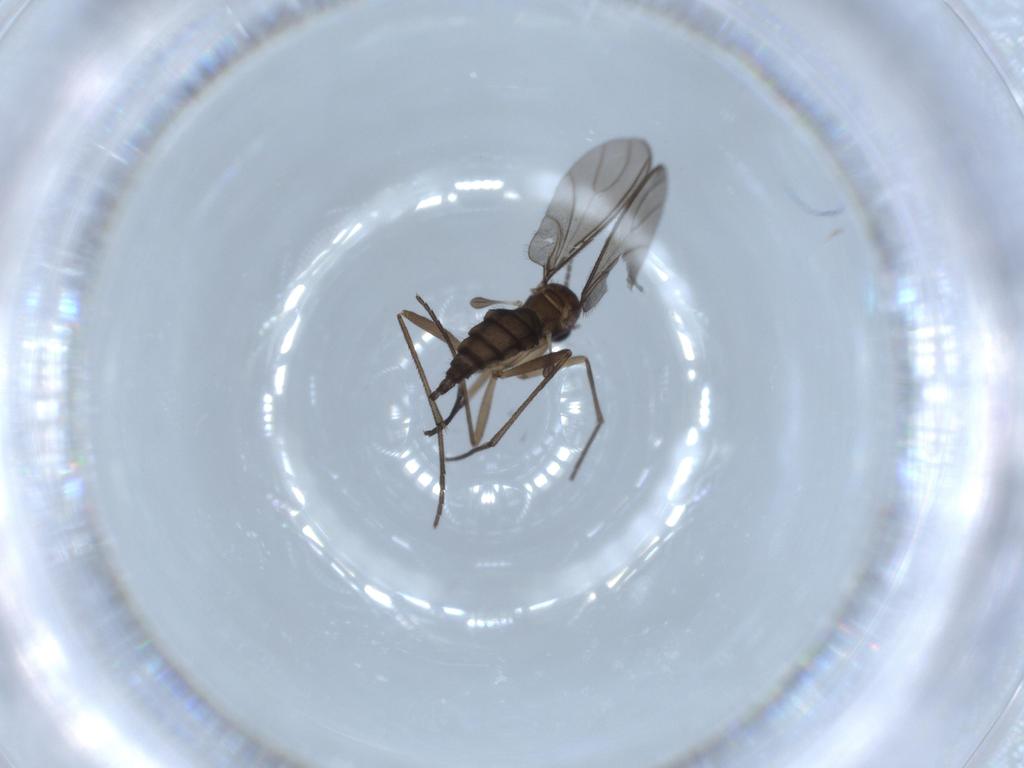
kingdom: Animalia
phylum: Arthropoda
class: Insecta
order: Diptera
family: Sciaridae
